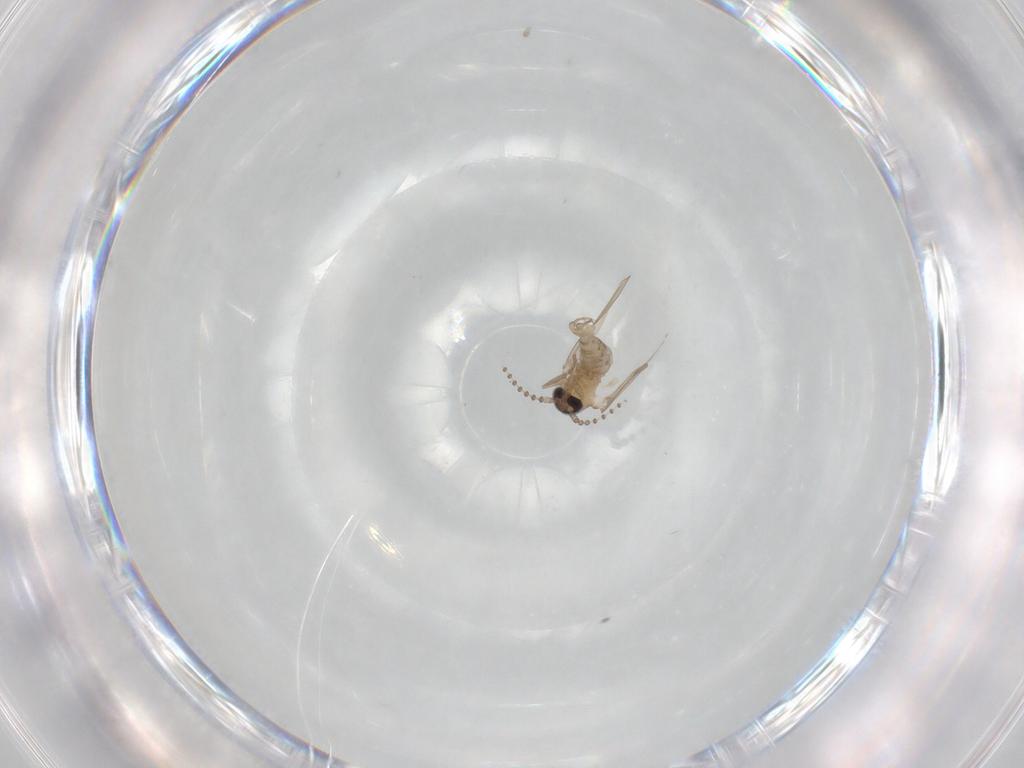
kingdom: Animalia
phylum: Arthropoda
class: Insecta
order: Diptera
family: Psychodidae
